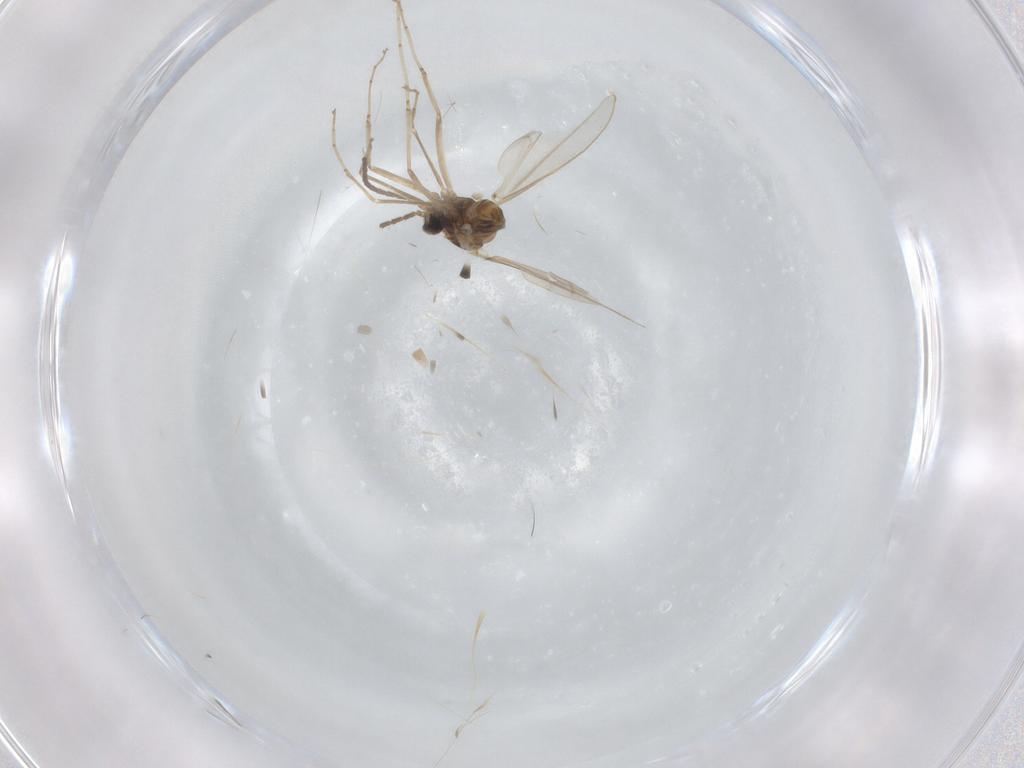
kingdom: Animalia
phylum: Arthropoda
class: Insecta
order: Diptera
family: Cecidomyiidae
